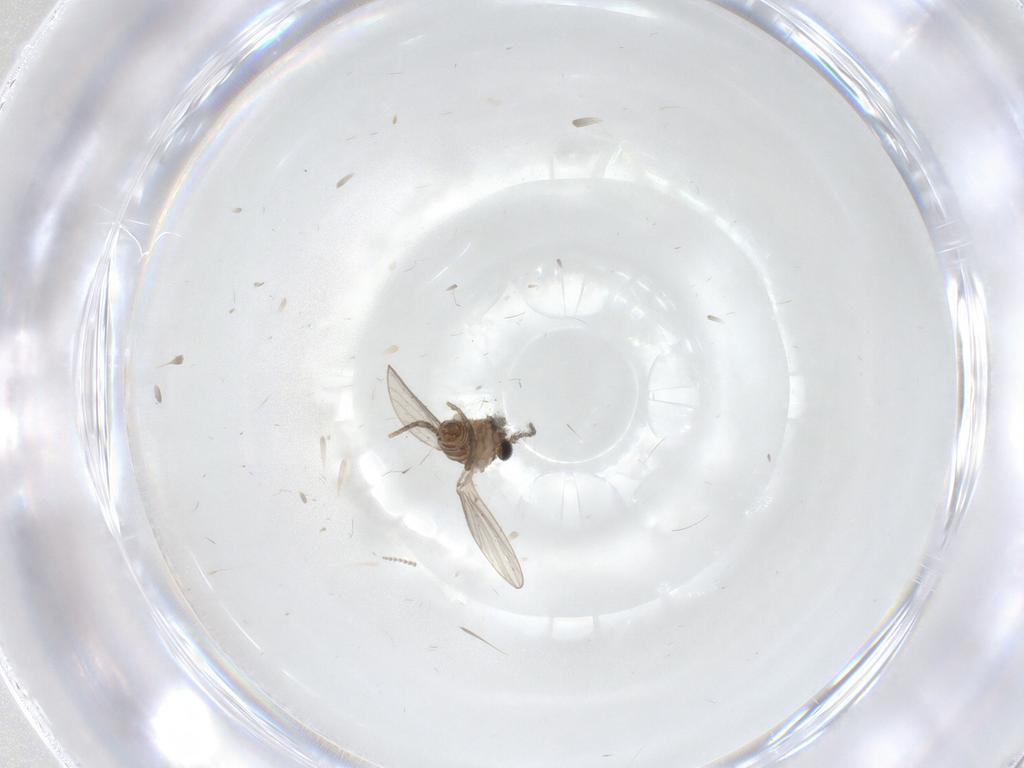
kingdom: Animalia
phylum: Arthropoda
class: Insecta
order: Diptera
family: Psychodidae
